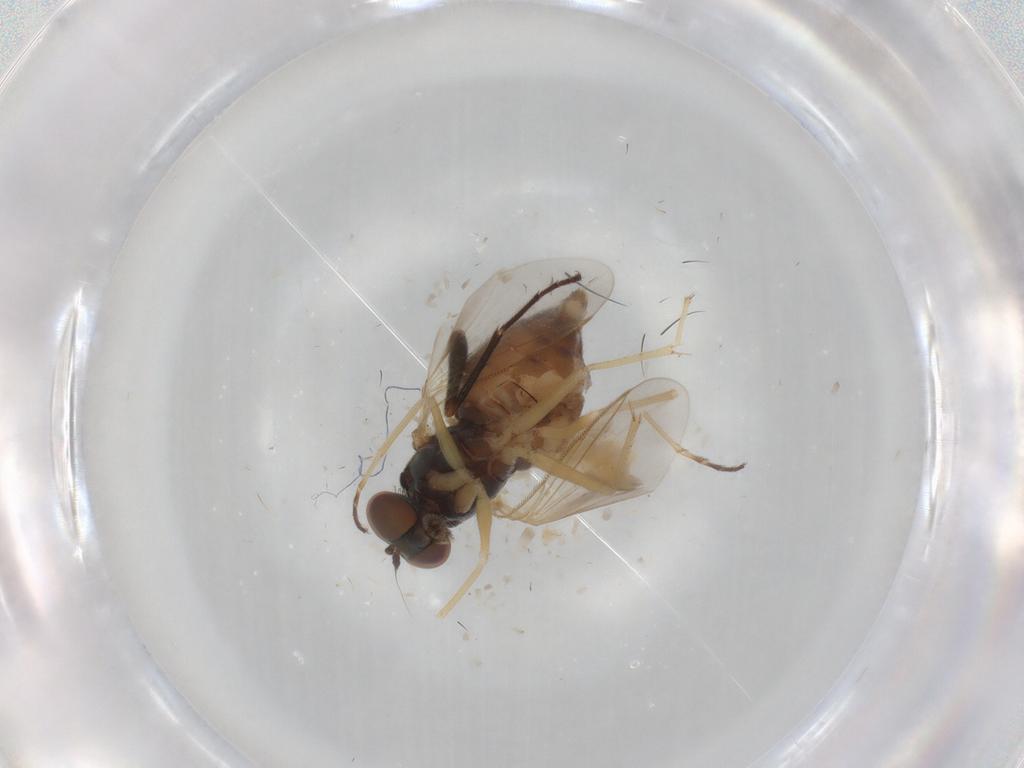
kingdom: Animalia
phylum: Arthropoda
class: Insecta
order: Diptera
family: Dolichopodidae
